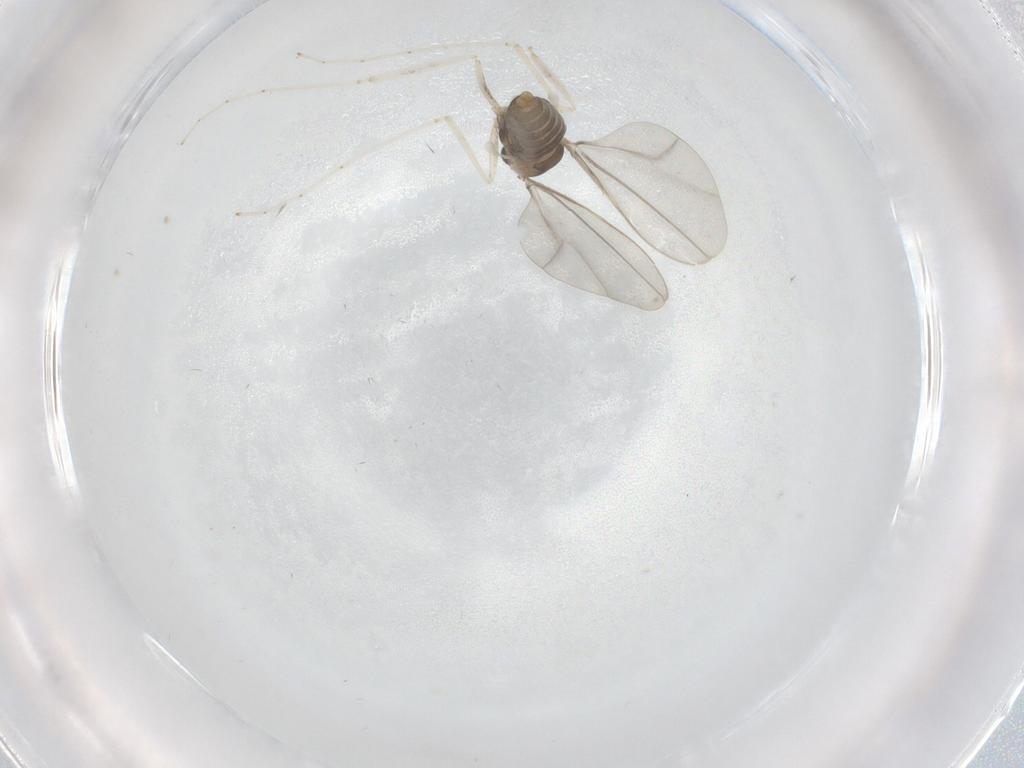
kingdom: Animalia
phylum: Arthropoda
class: Insecta
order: Diptera
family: Cecidomyiidae
